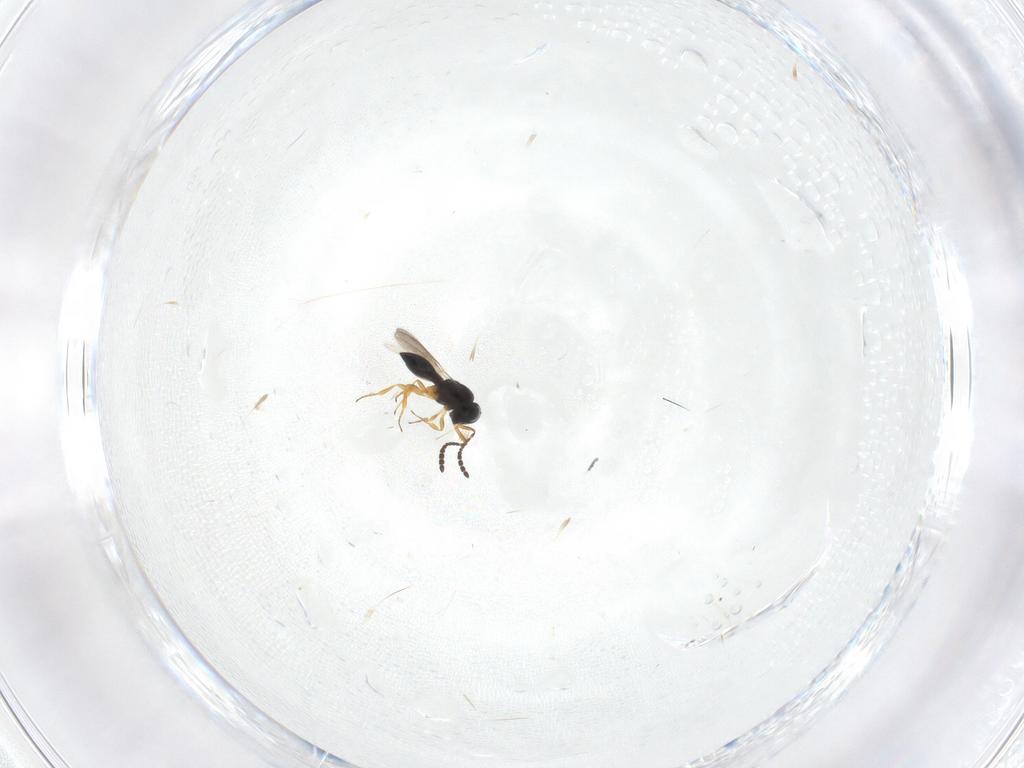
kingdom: Animalia
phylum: Arthropoda
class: Insecta
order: Hymenoptera
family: Scelionidae
